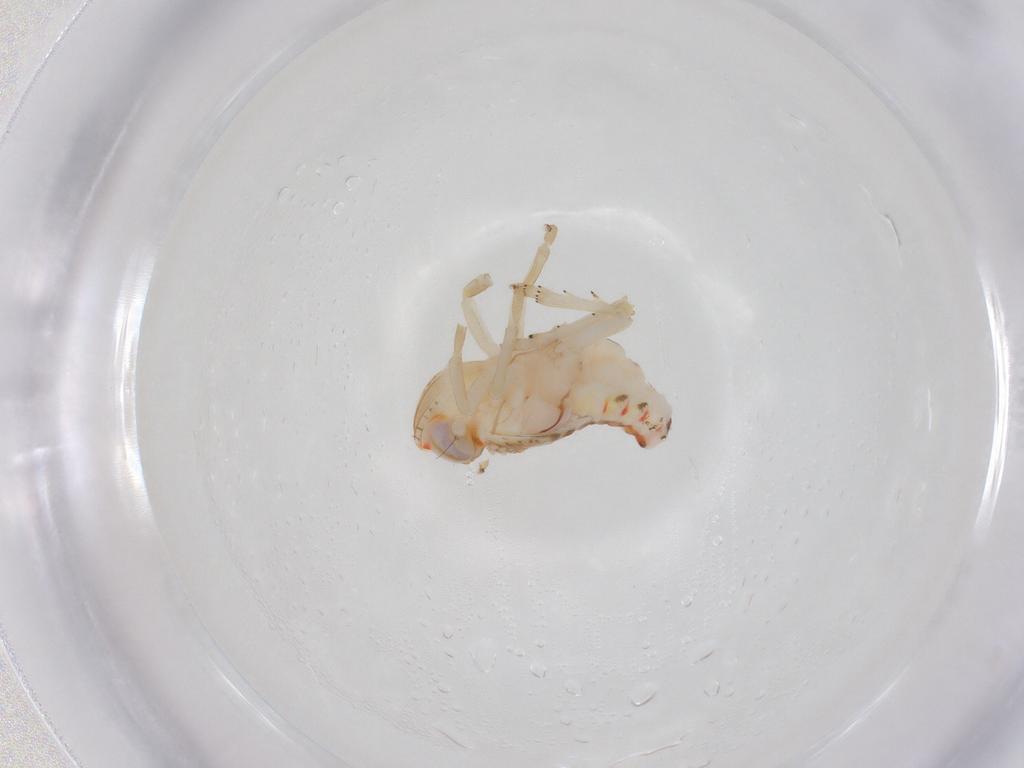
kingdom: Animalia
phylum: Arthropoda
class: Insecta
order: Hemiptera
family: Nogodinidae
